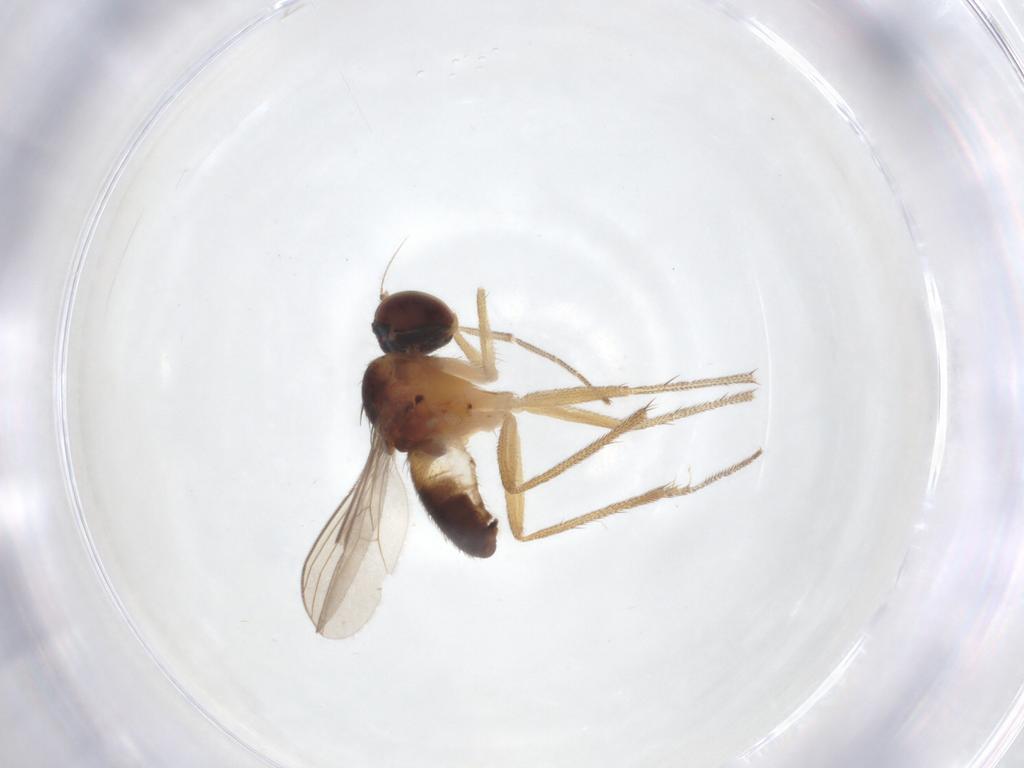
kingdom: Animalia
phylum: Arthropoda
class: Insecta
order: Diptera
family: Dolichopodidae
